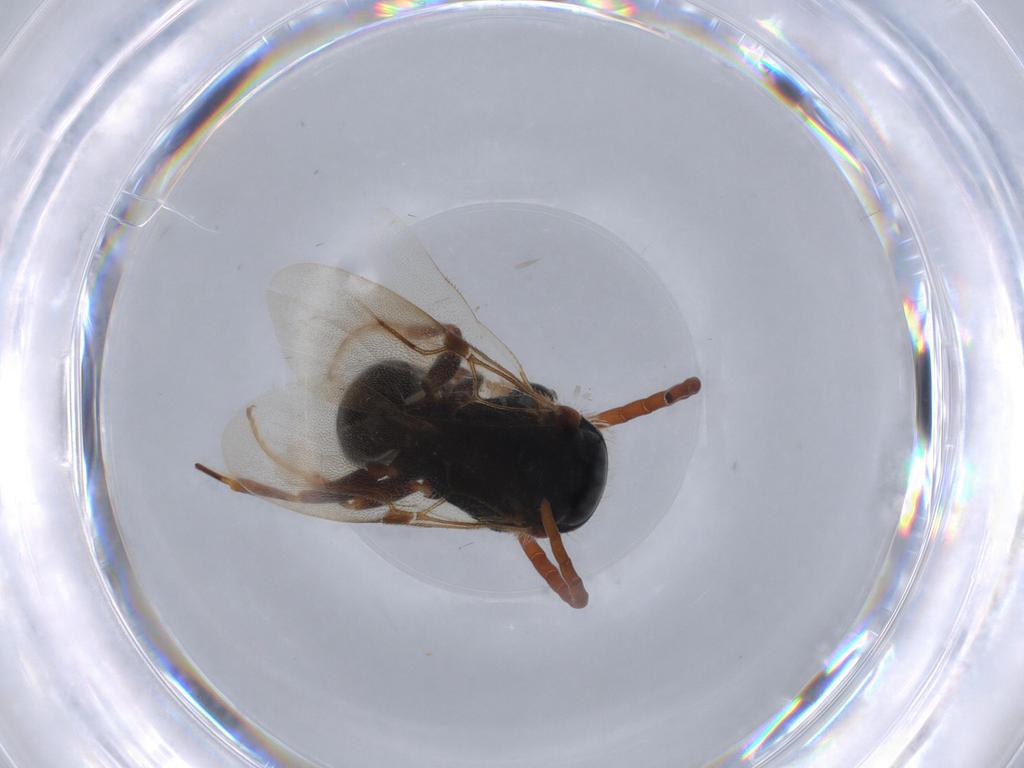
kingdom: Animalia
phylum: Arthropoda
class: Insecta
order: Hymenoptera
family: Bethylidae
